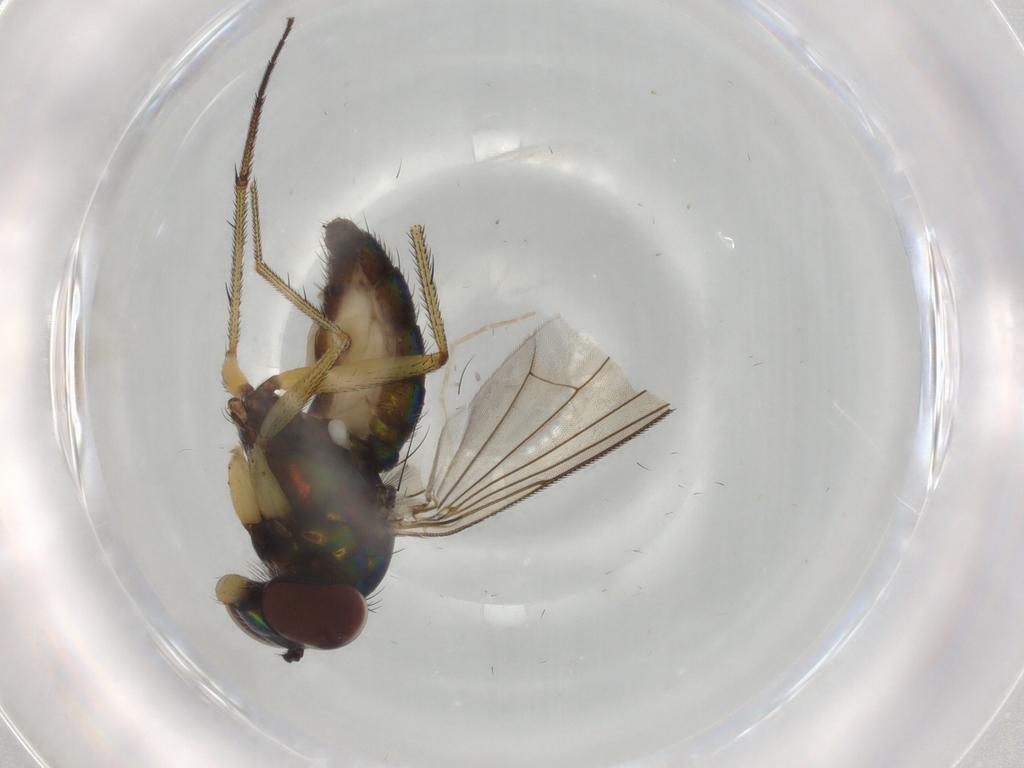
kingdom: Animalia
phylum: Arthropoda
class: Insecta
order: Diptera
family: Dolichopodidae
